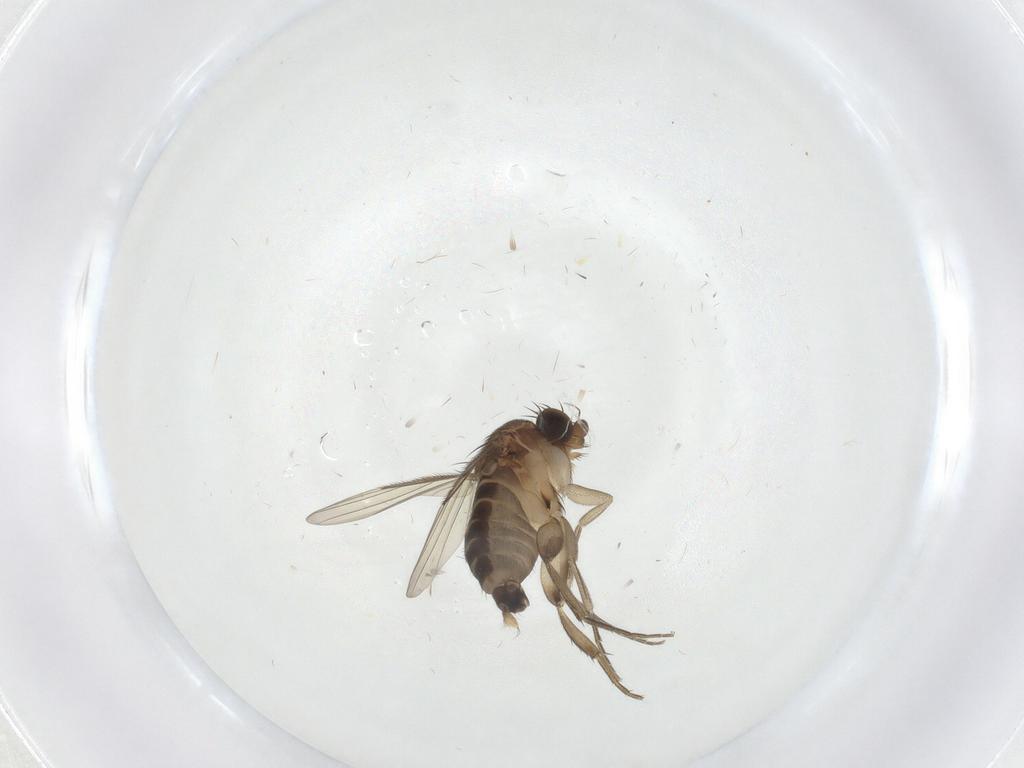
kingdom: Animalia
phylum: Arthropoda
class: Insecta
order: Diptera
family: Phoridae
